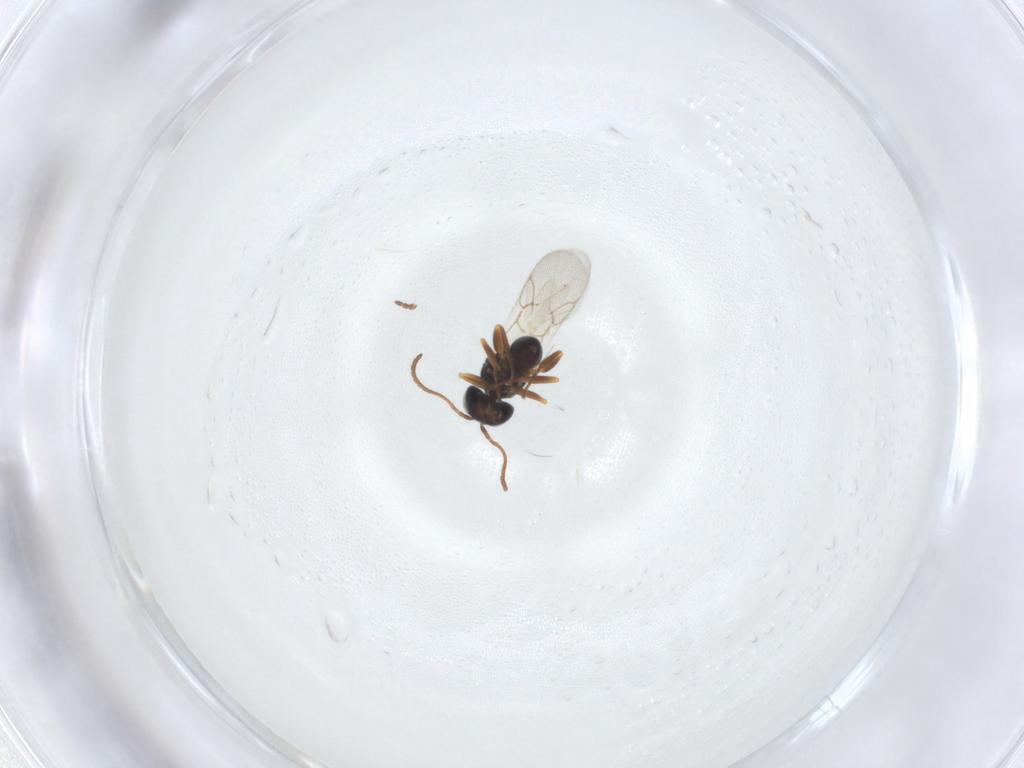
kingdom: Animalia
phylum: Arthropoda
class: Insecta
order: Hymenoptera
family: Cynipidae
